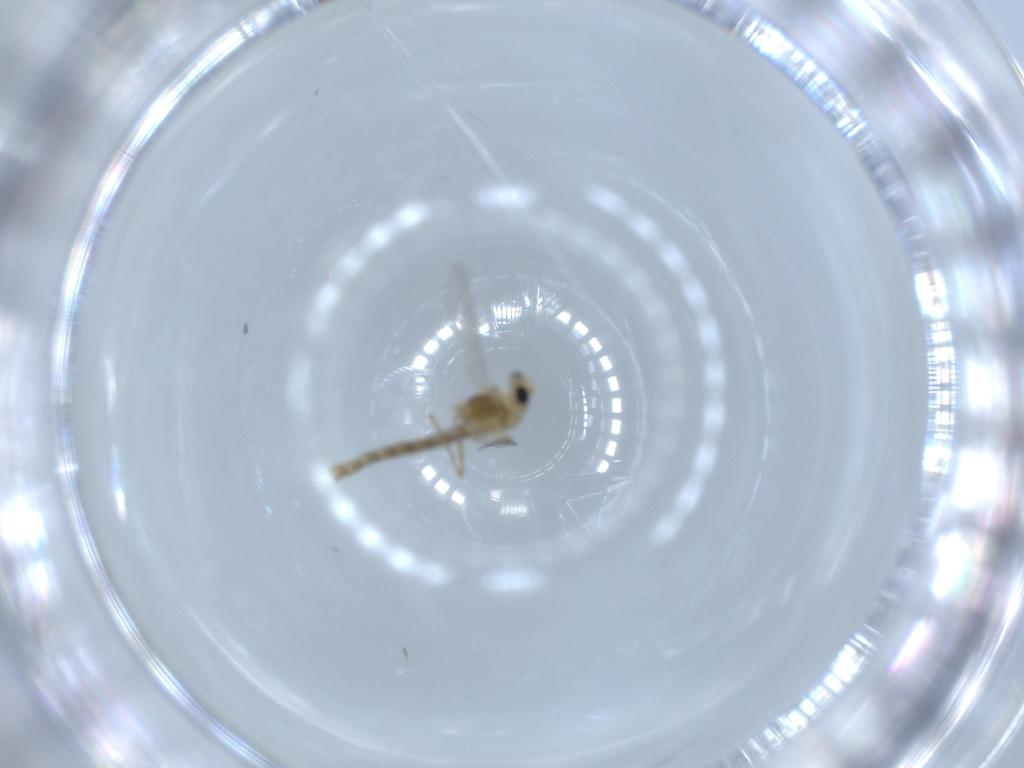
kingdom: Animalia
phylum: Arthropoda
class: Insecta
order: Diptera
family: Chironomidae
